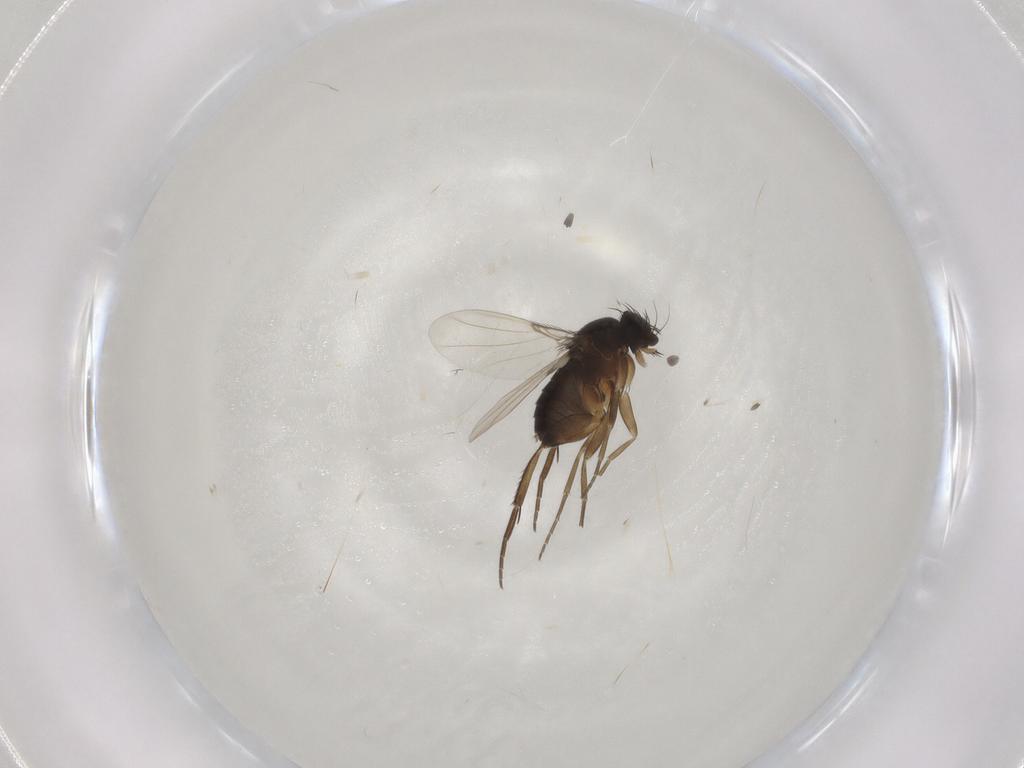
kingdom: Animalia
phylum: Arthropoda
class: Insecta
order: Diptera
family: Phoridae
